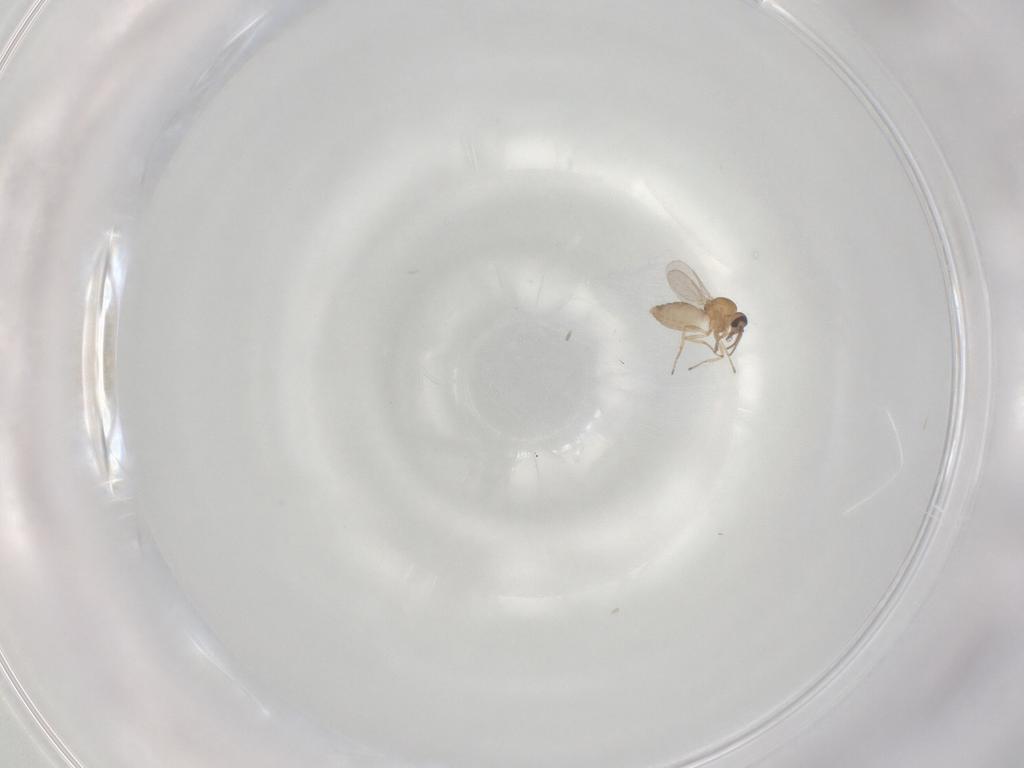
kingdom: Animalia
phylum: Arthropoda
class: Insecta
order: Diptera
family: Ceratopogonidae
